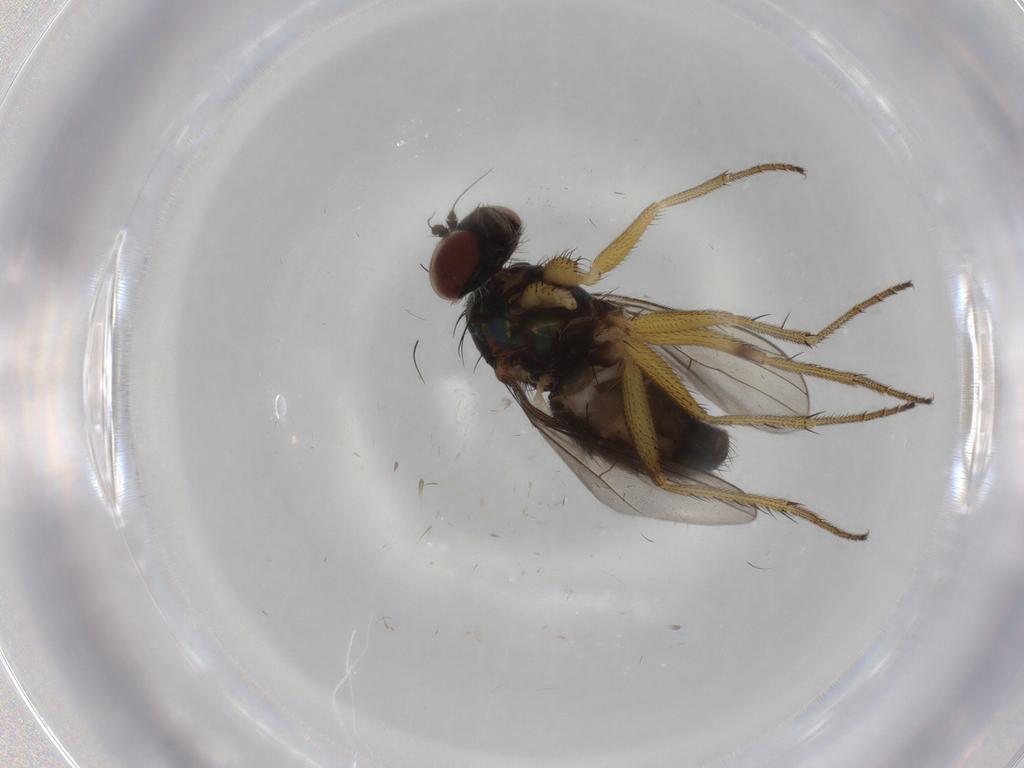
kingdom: Animalia
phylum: Arthropoda
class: Insecta
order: Diptera
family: Dolichopodidae
